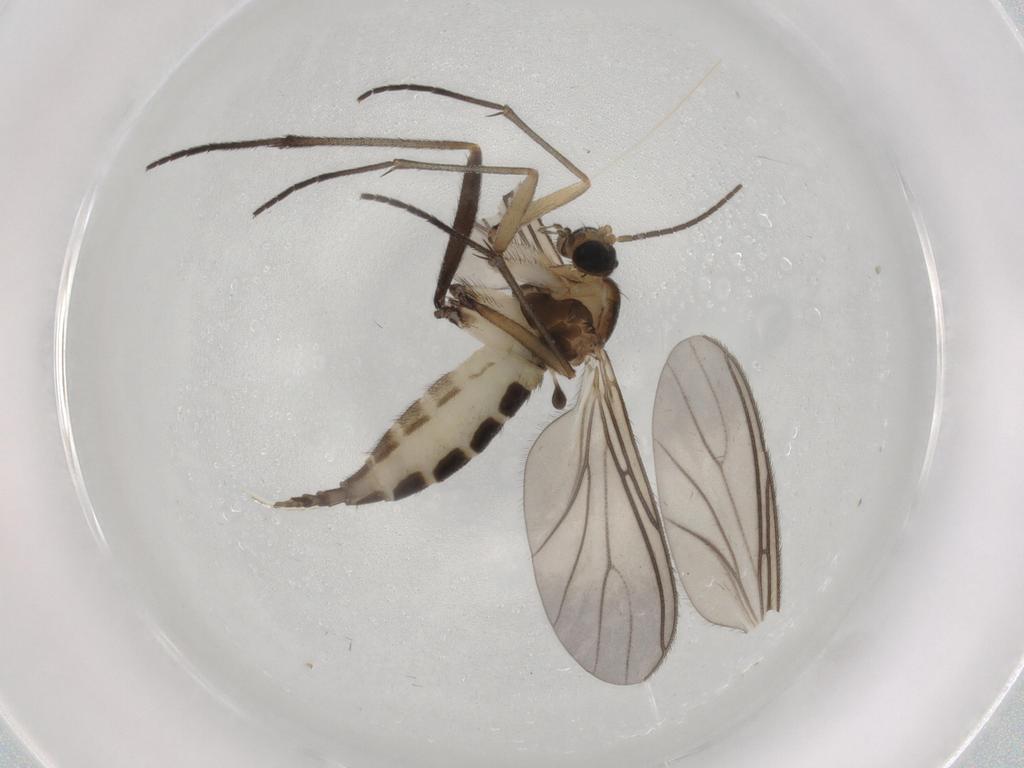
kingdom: Animalia
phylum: Arthropoda
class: Insecta
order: Diptera
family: Sciaridae
